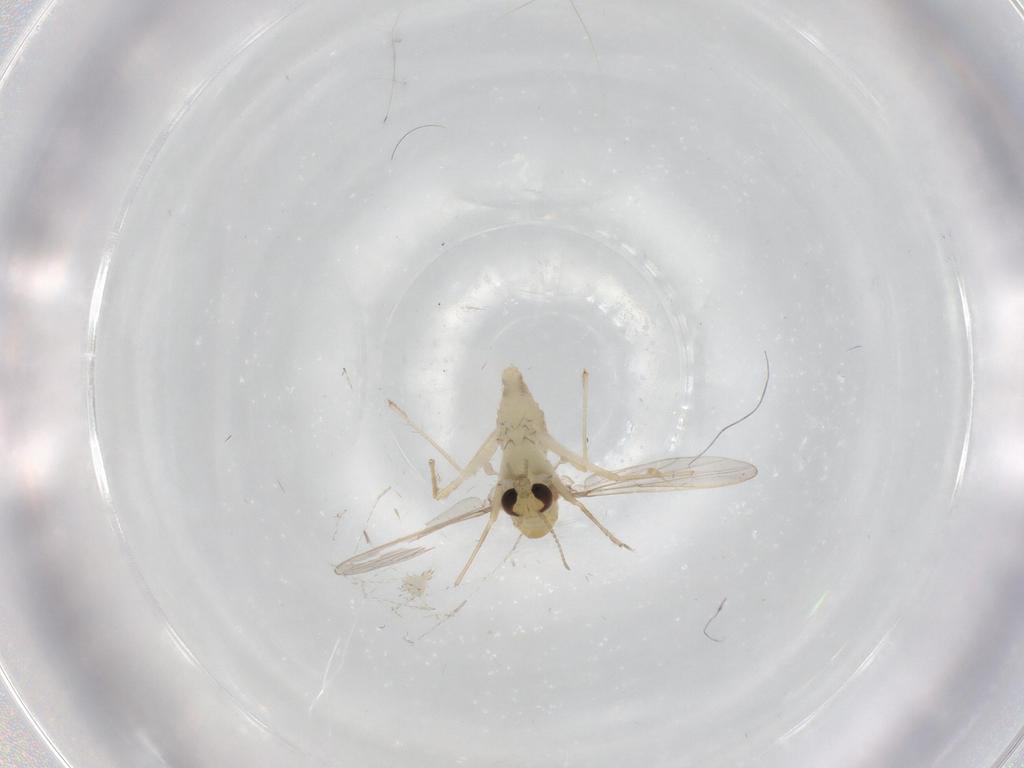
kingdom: Animalia
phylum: Arthropoda
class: Insecta
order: Diptera
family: Chironomidae
